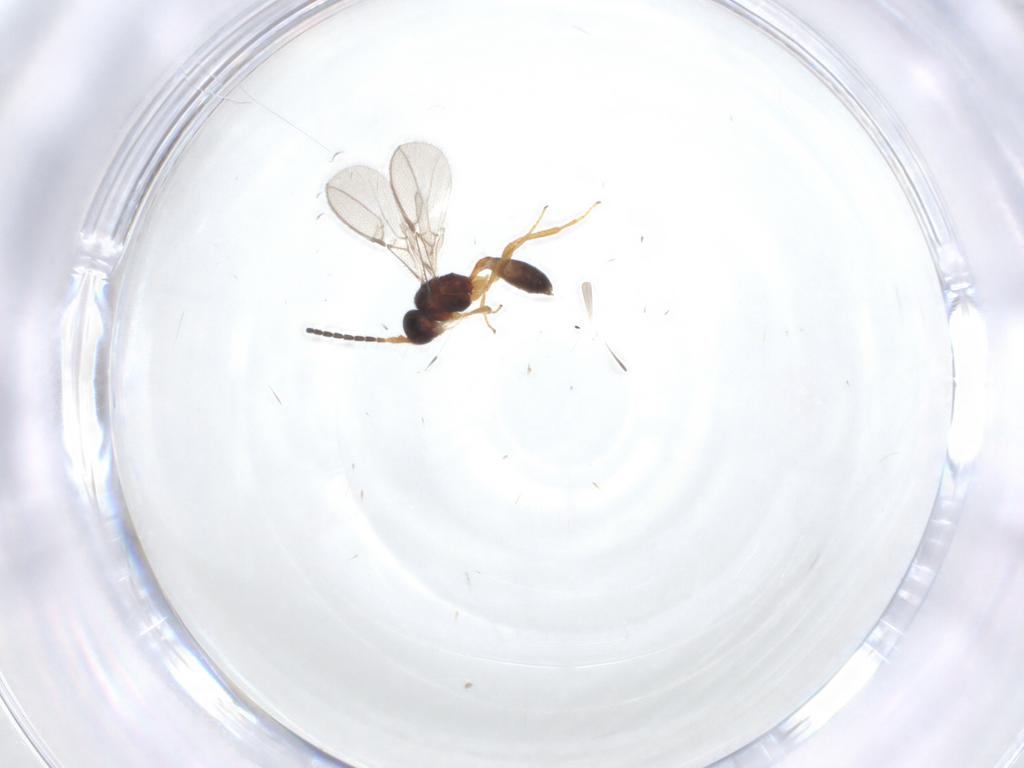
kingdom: Animalia
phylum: Arthropoda
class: Insecta
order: Hymenoptera
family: Braconidae
